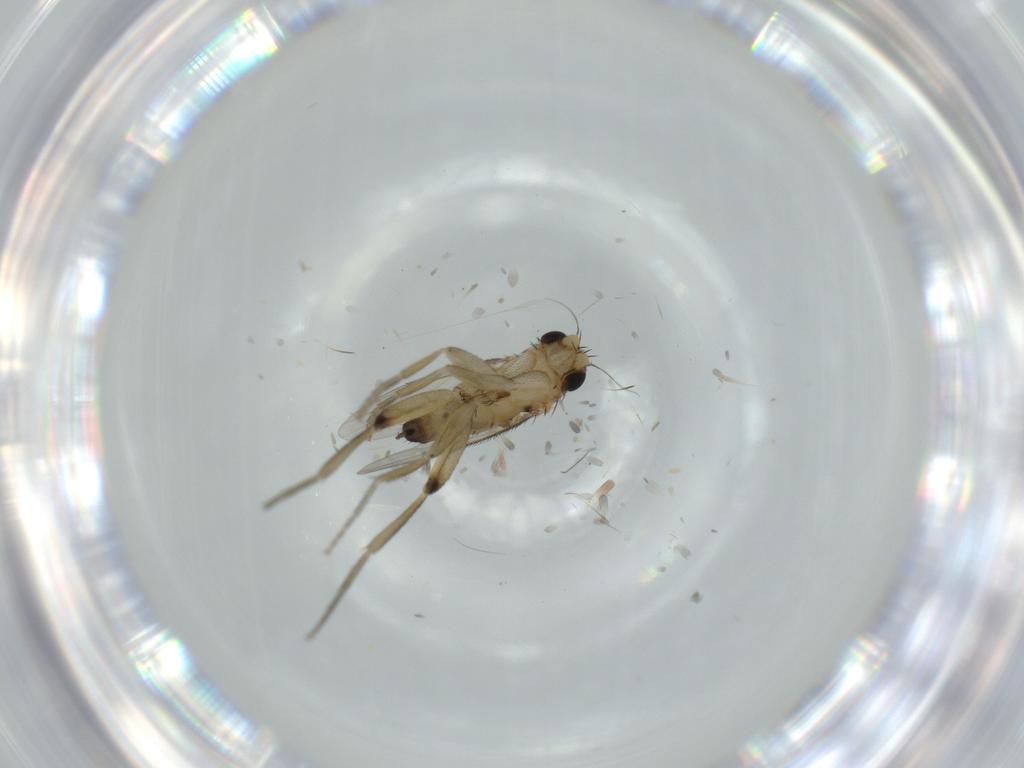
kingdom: Animalia
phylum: Arthropoda
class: Insecta
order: Diptera
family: Phoridae
